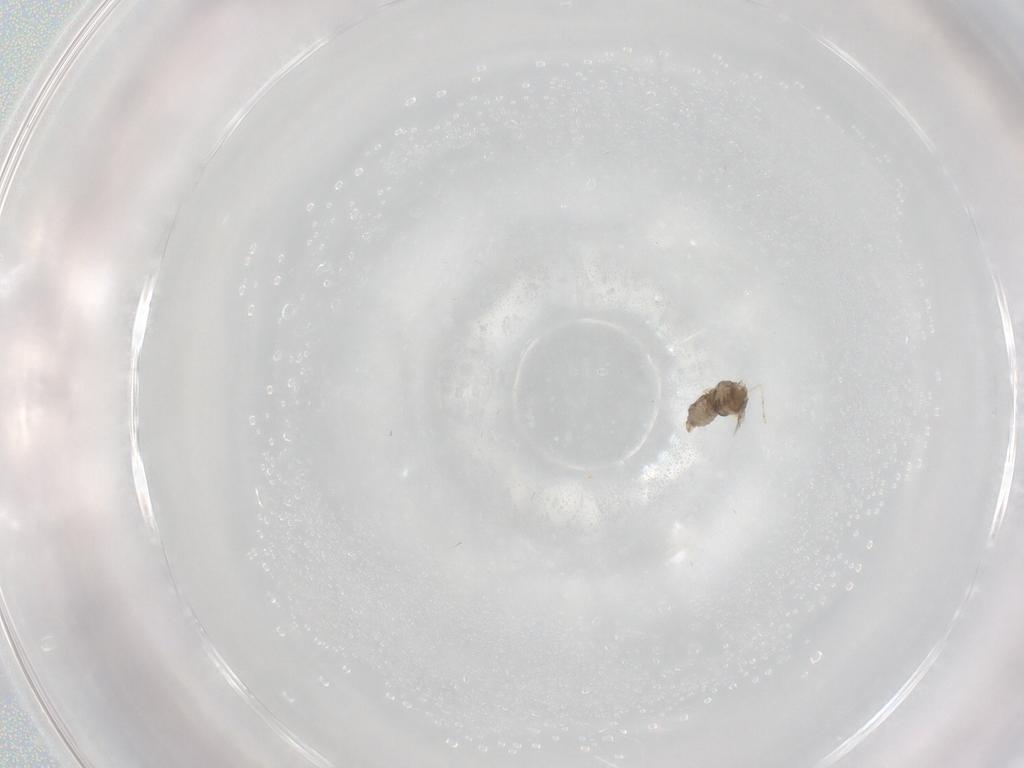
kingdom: Animalia
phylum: Arthropoda
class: Insecta
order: Diptera
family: Cecidomyiidae
